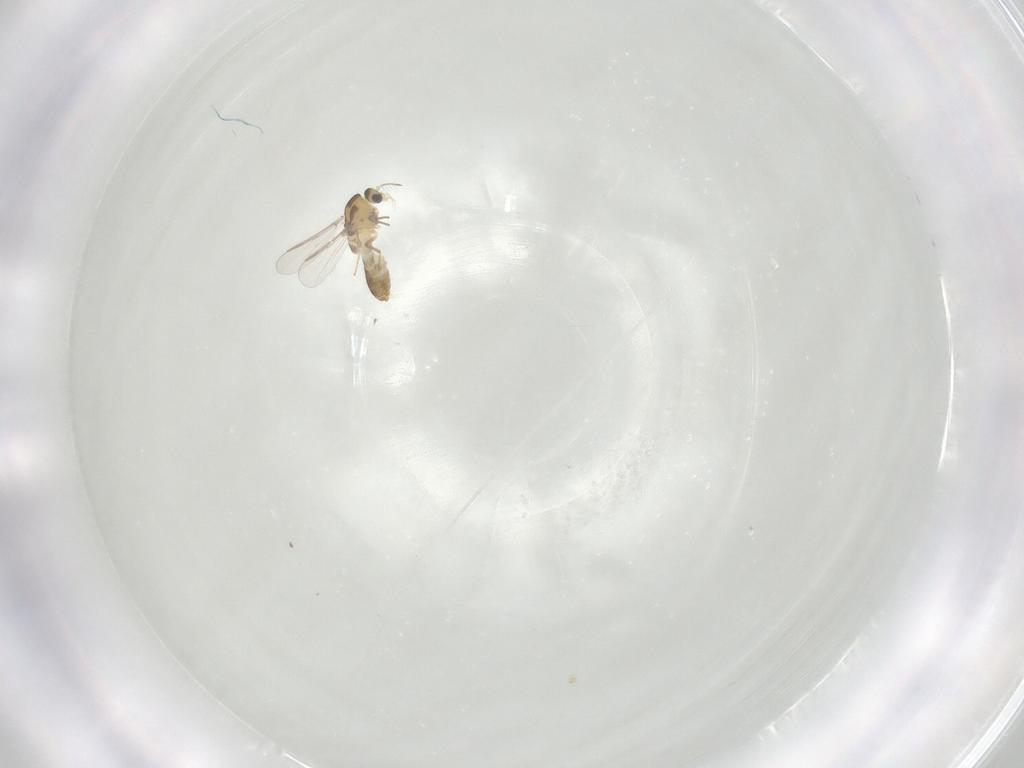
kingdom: Animalia
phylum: Arthropoda
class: Insecta
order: Diptera
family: Chironomidae
